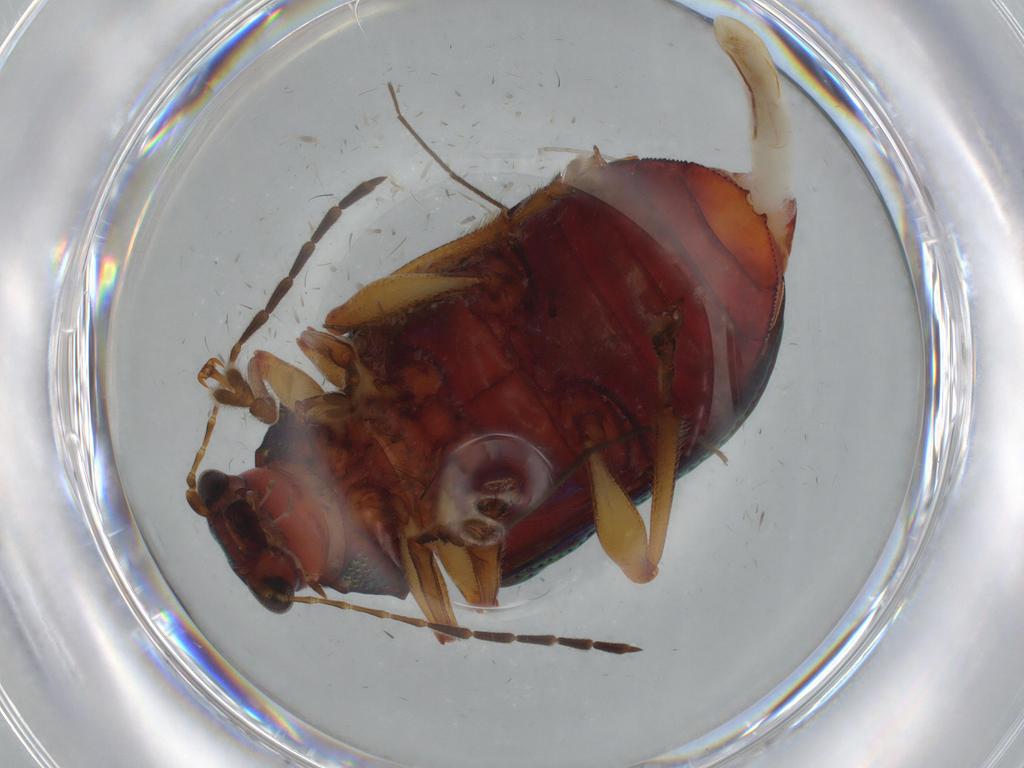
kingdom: Animalia
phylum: Arthropoda
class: Insecta
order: Coleoptera
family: Chrysomelidae
